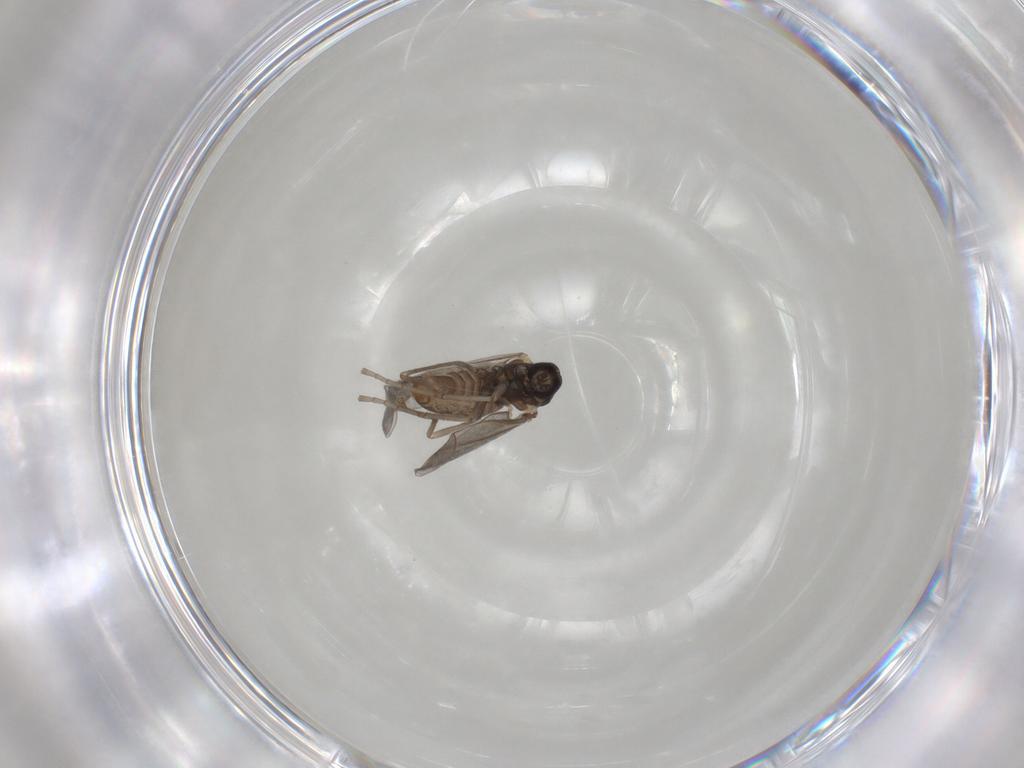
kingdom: Animalia
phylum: Arthropoda
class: Insecta
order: Diptera
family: Cecidomyiidae
